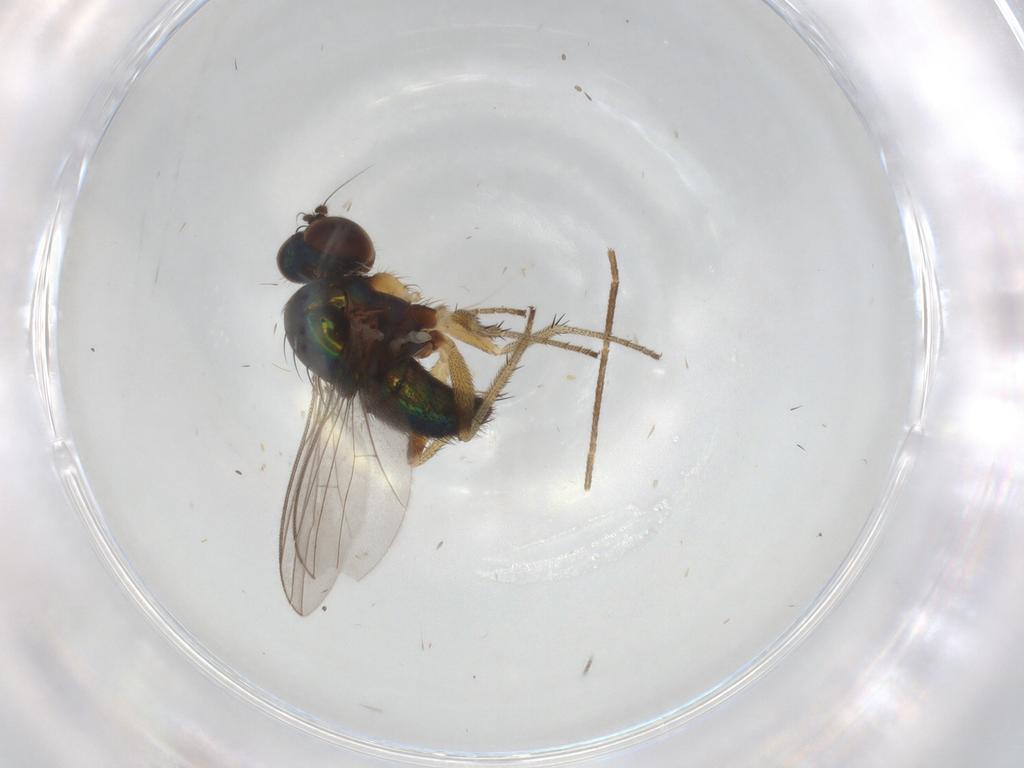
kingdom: Animalia
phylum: Arthropoda
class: Insecta
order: Diptera
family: Cecidomyiidae
